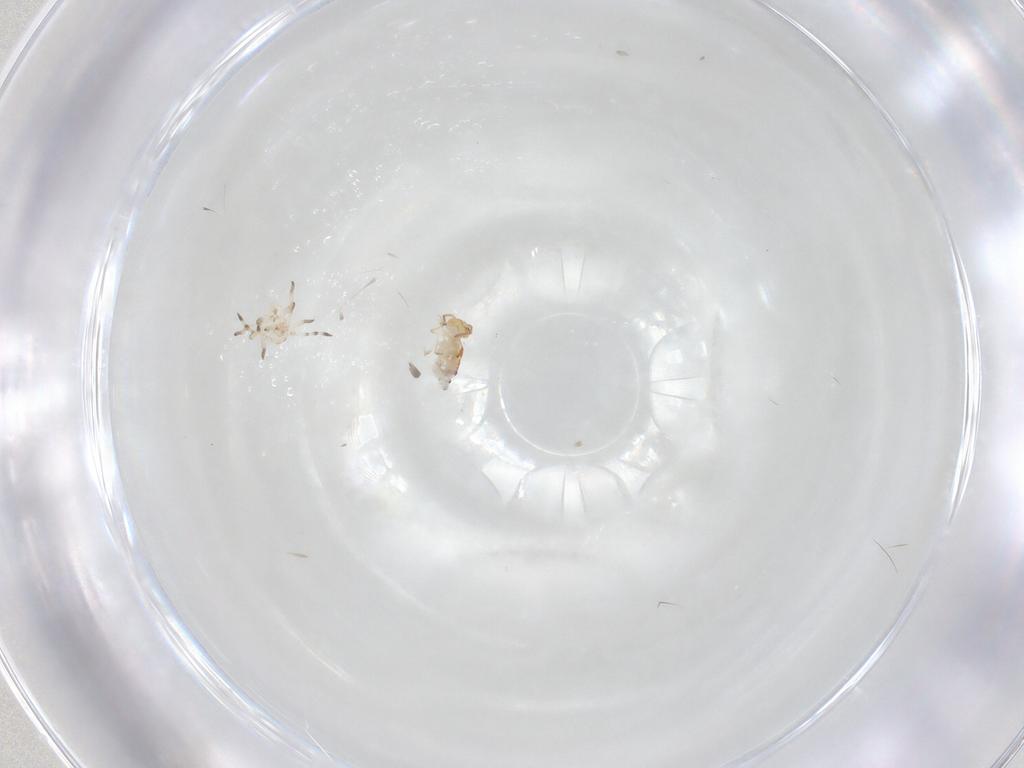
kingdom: Animalia
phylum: Arthropoda
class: Collembola
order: Symphypleona
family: Bourletiellidae
